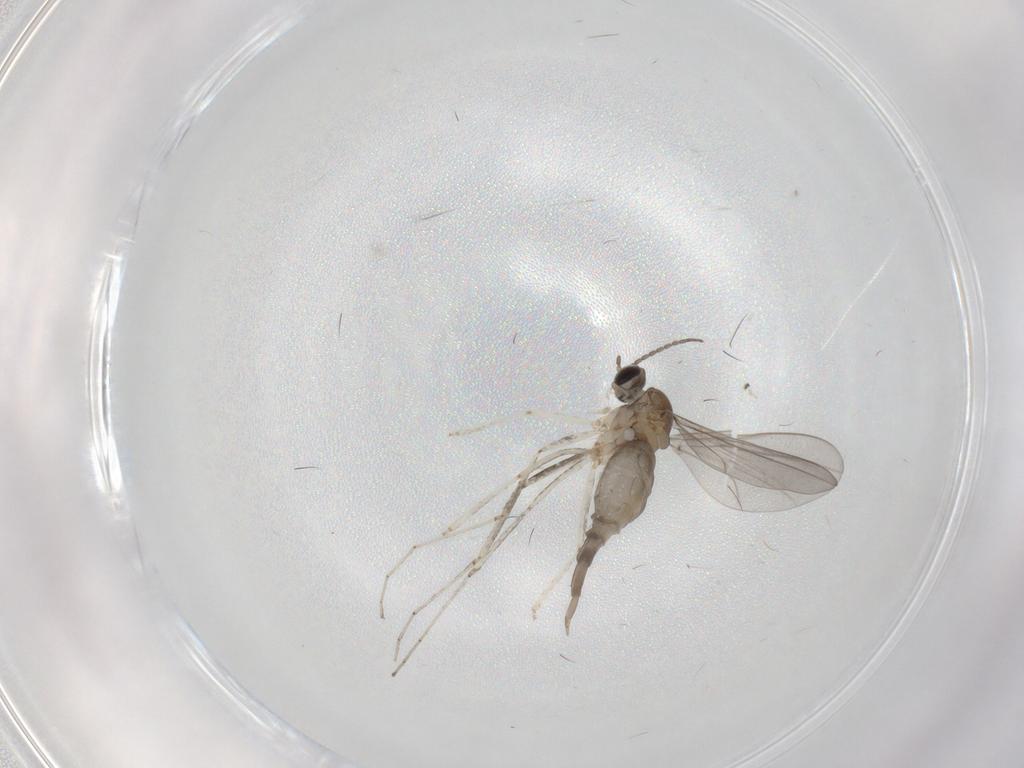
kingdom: Animalia
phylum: Arthropoda
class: Insecta
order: Diptera
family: Cecidomyiidae
